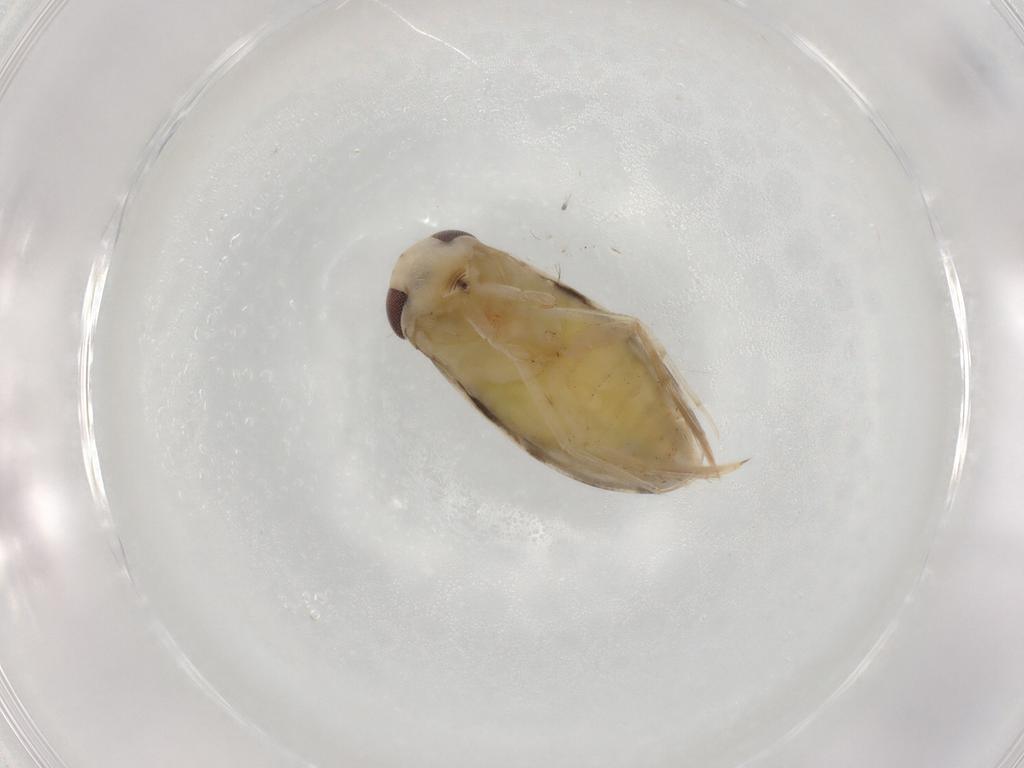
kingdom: Animalia
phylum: Arthropoda
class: Insecta
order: Hemiptera
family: Corixidae
